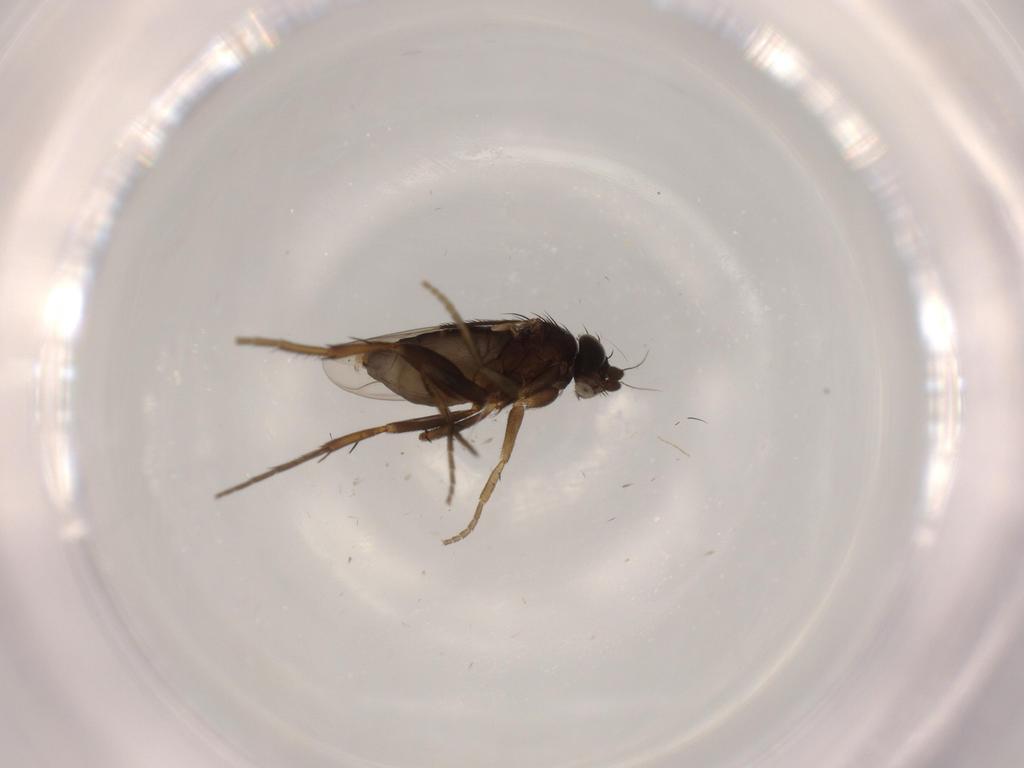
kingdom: Animalia
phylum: Arthropoda
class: Insecta
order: Diptera
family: Phoridae
